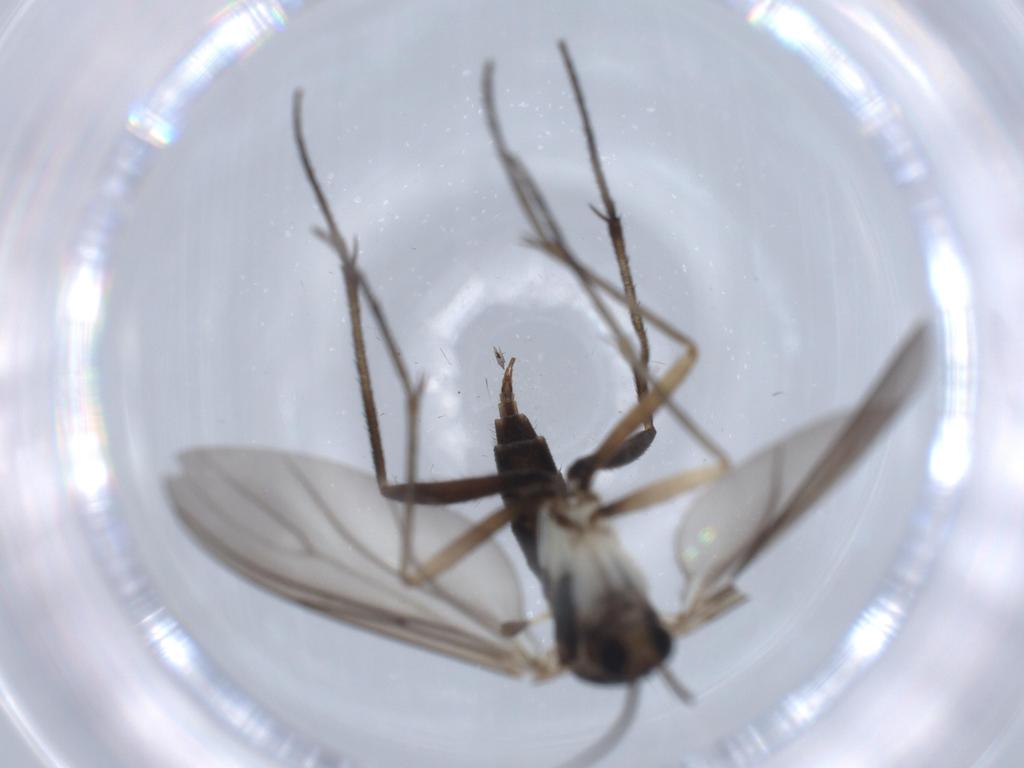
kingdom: Animalia
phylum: Arthropoda
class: Insecta
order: Diptera
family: Sciaridae
